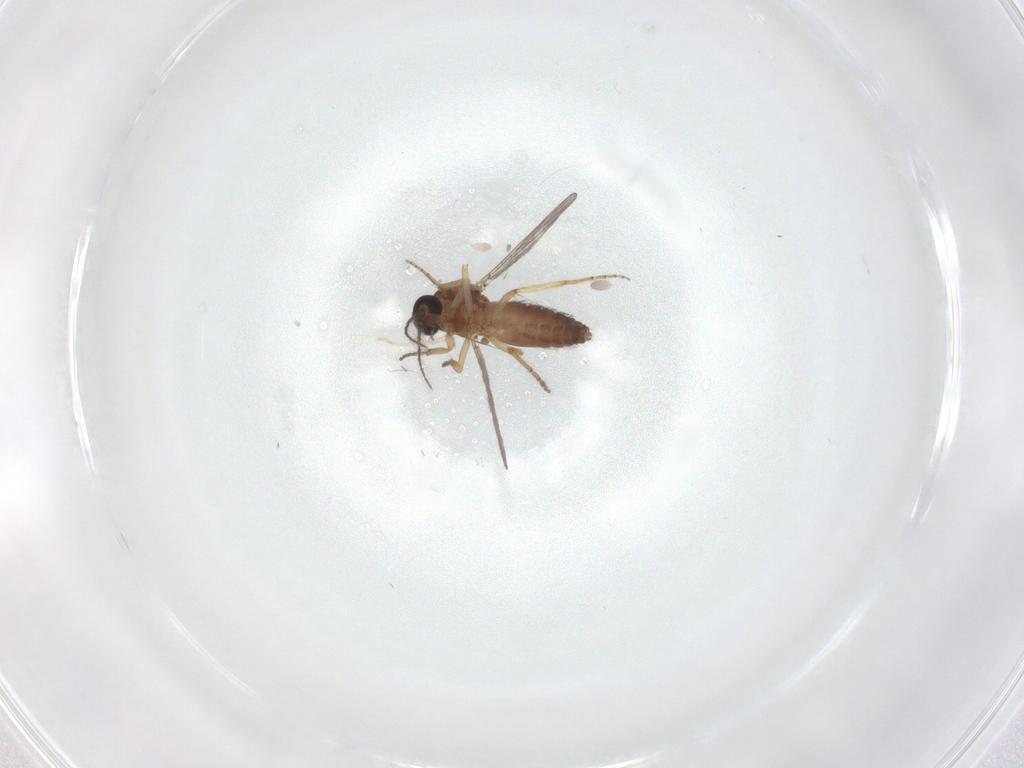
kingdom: Animalia
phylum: Arthropoda
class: Insecta
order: Diptera
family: Ceratopogonidae
